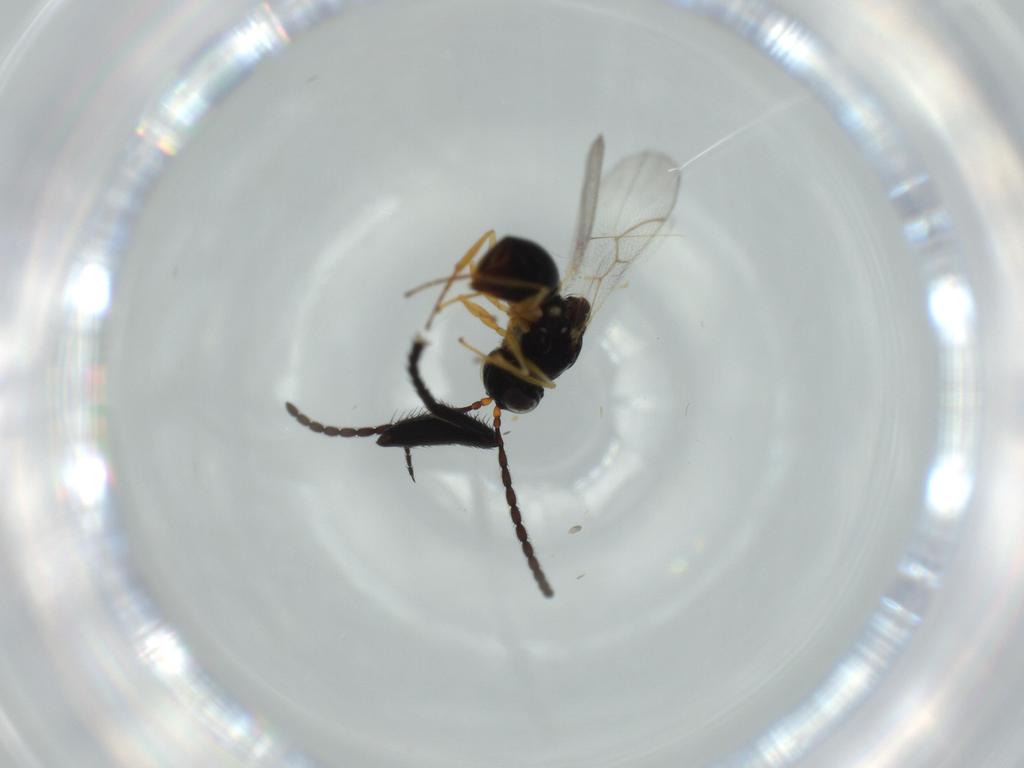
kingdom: Animalia
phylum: Arthropoda
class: Insecta
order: Hymenoptera
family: Figitidae
